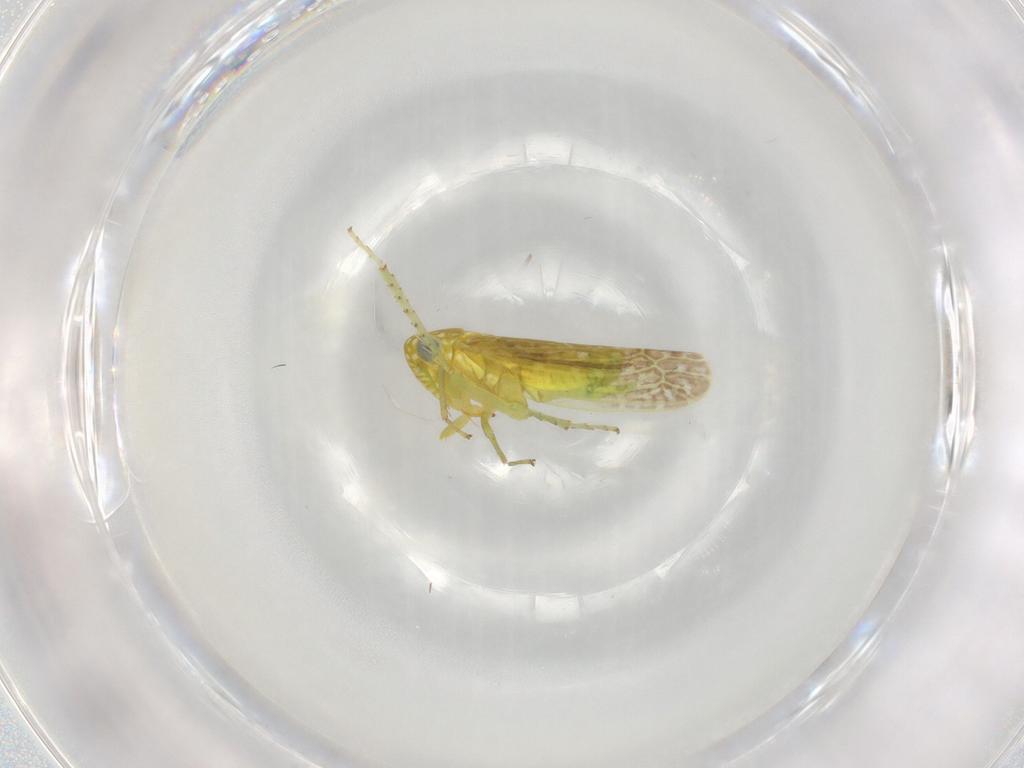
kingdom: Animalia
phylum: Arthropoda
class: Insecta
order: Hemiptera
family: Cicadellidae
